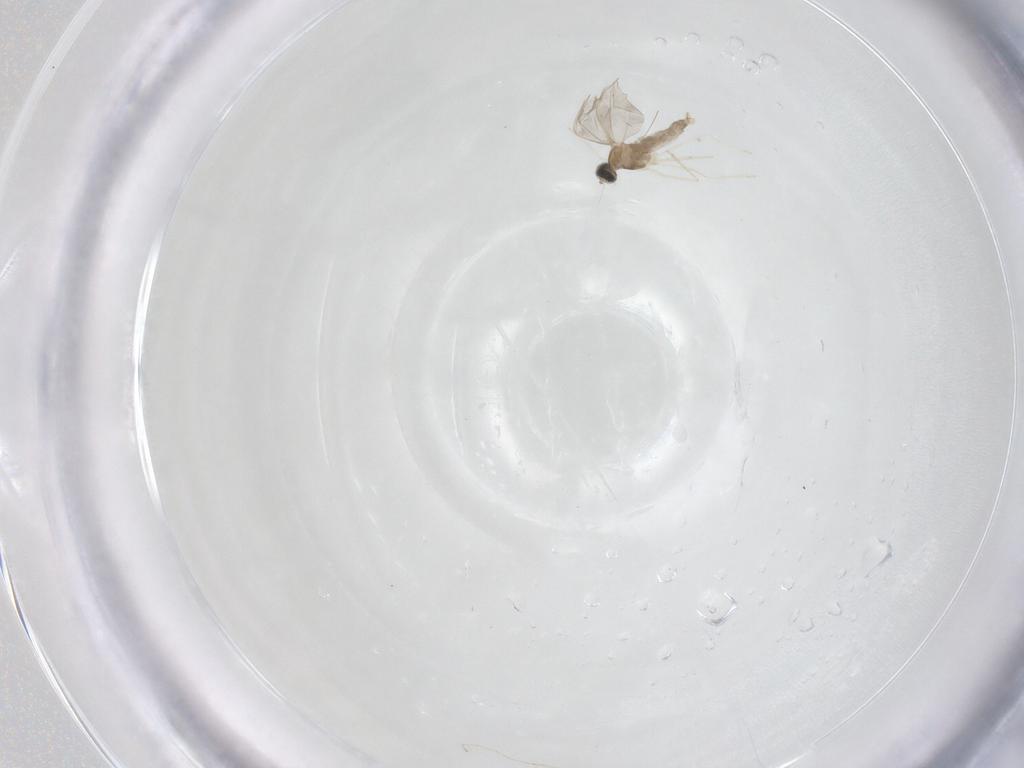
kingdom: Animalia
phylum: Arthropoda
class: Insecta
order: Diptera
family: Cecidomyiidae
